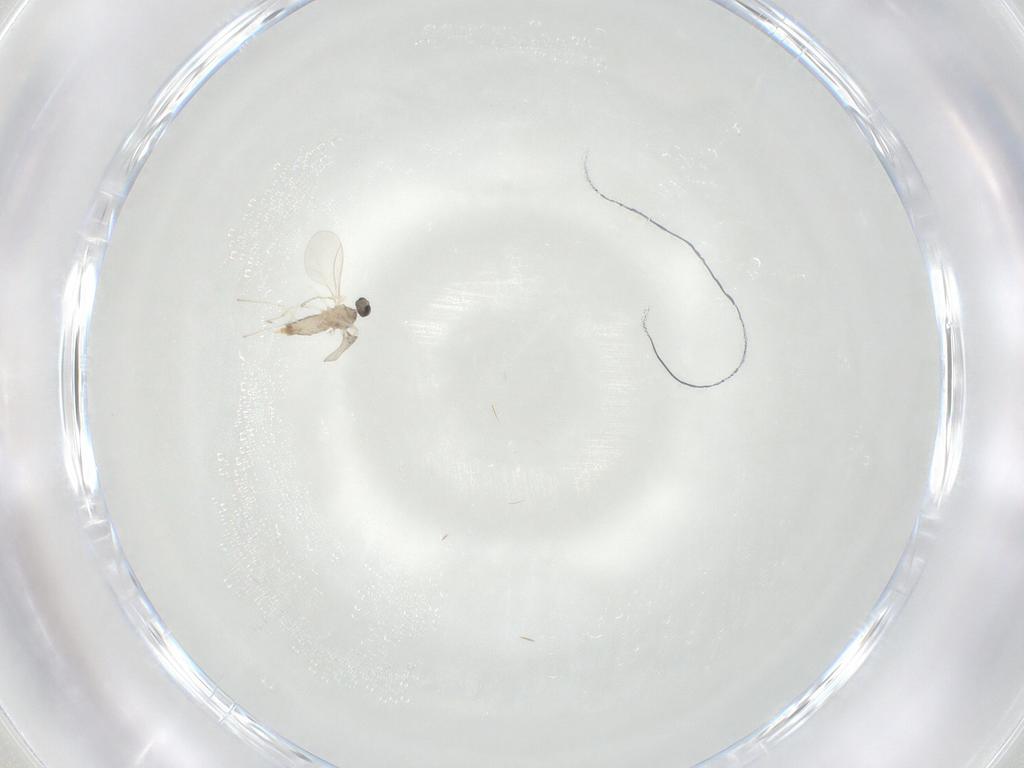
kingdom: Animalia
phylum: Arthropoda
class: Insecta
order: Diptera
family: Cecidomyiidae
